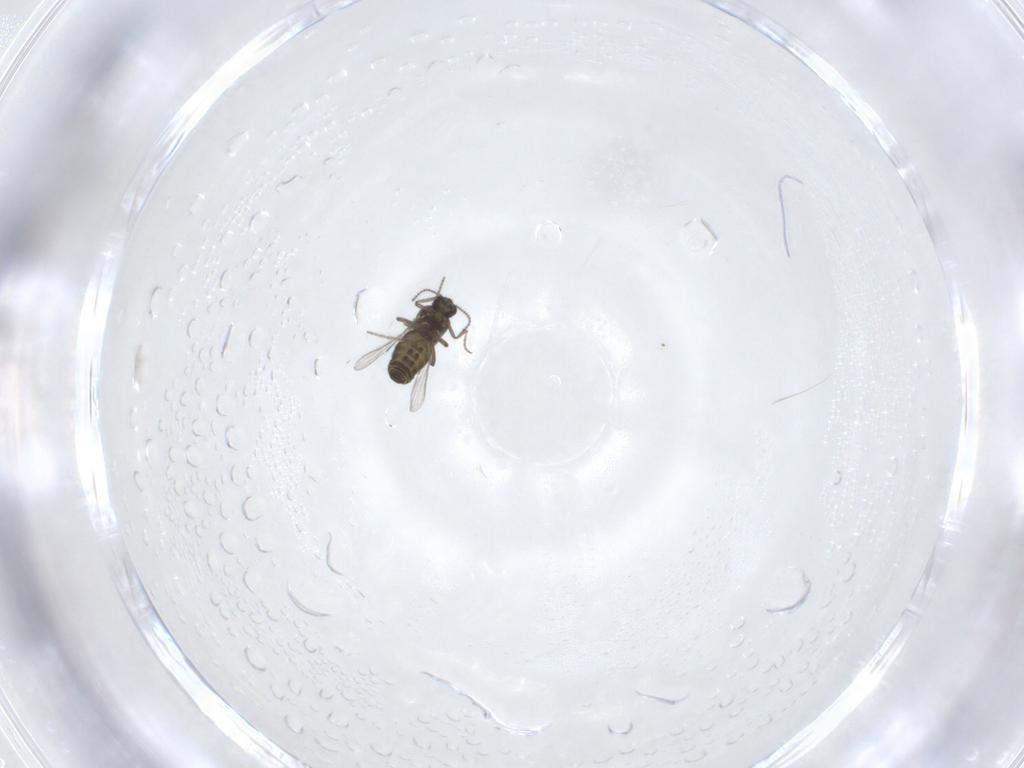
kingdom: Animalia
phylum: Arthropoda
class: Insecta
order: Diptera
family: Ceratopogonidae
